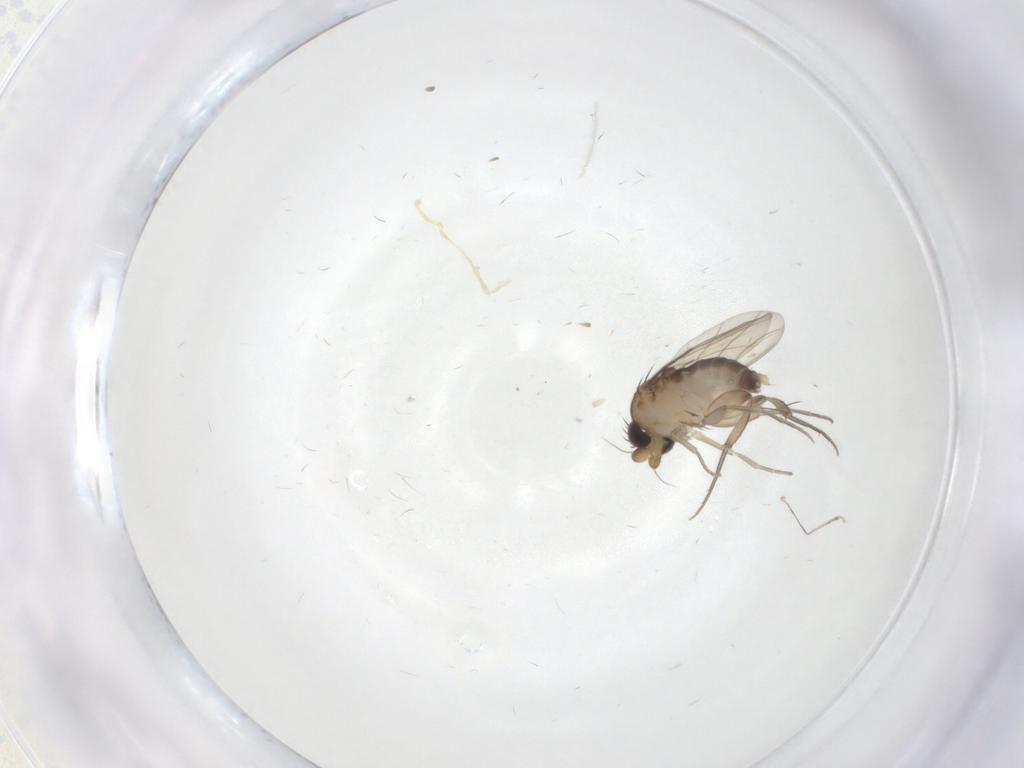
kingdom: Animalia
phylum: Arthropoda
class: Insecta
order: Diptera
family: Phoridae
